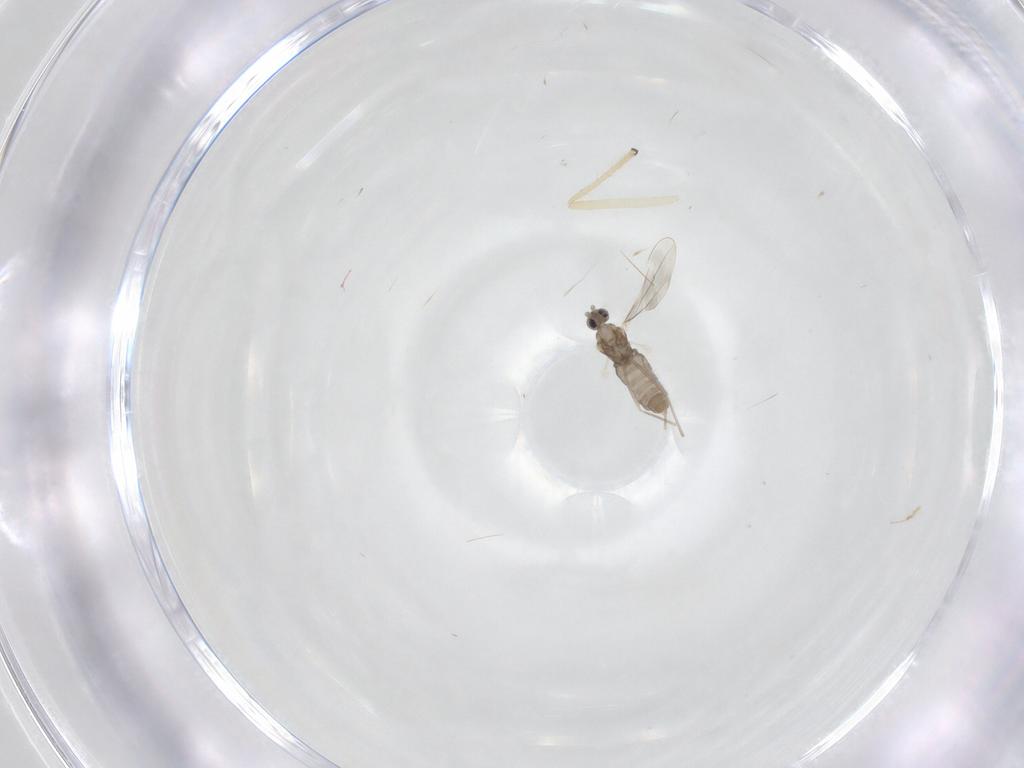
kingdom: Animalia
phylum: Arthropoda
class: Insecta
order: Diptera
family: Chironomidae
